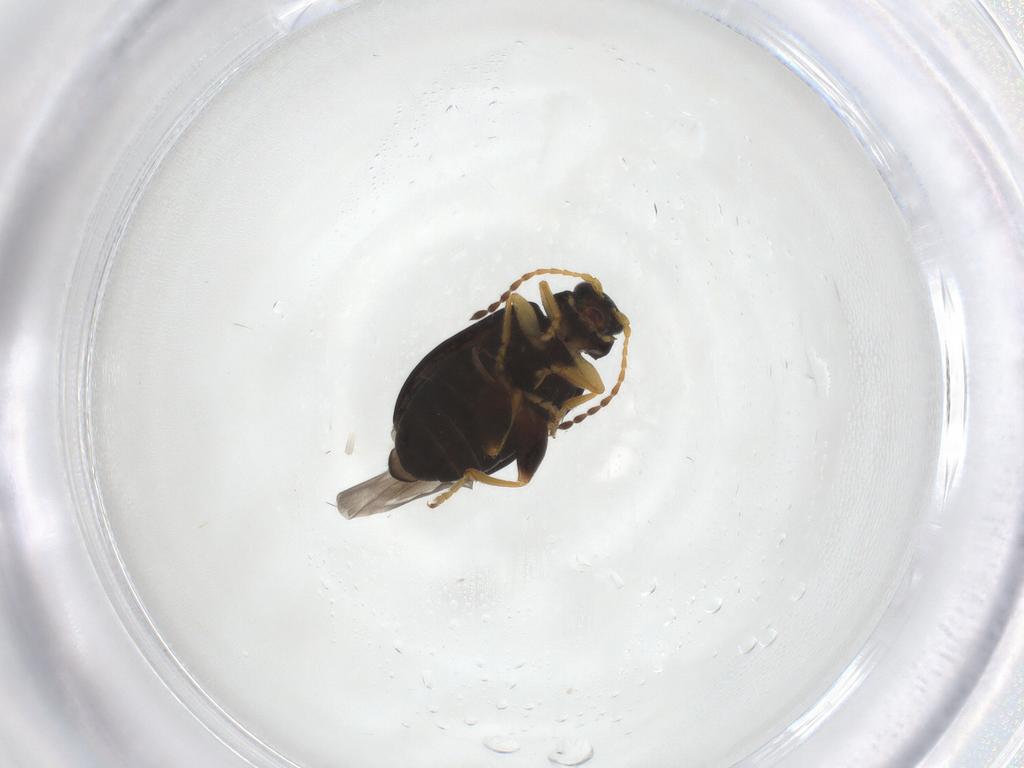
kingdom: Animalia
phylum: Arthropoda
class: Insecta
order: Coleoptera
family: Chrysomelidae
